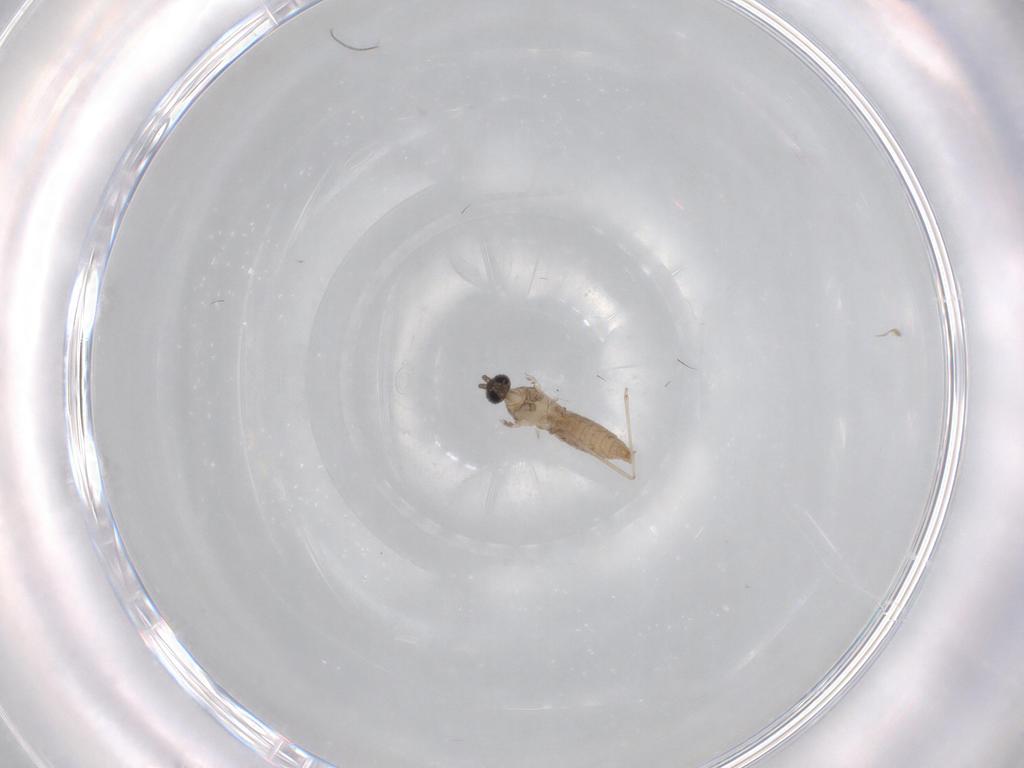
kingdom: Animalia
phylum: Arthropoda
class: Insecta
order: Diptera
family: Cecidomyiidae
